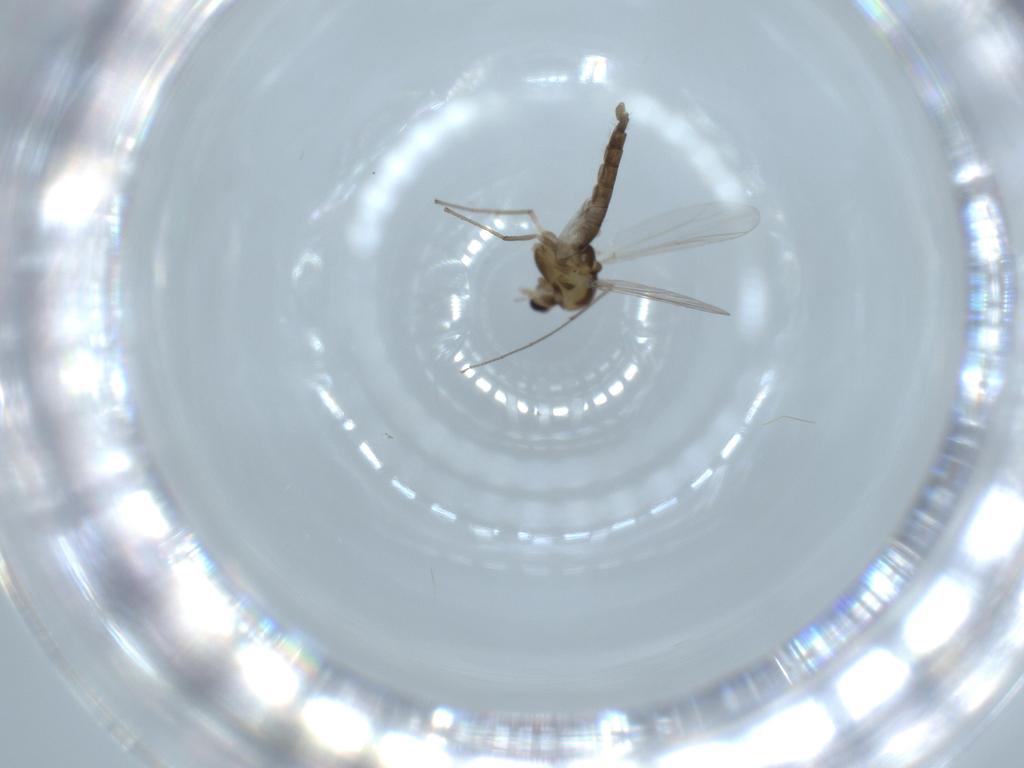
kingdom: Animalia
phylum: Arthropoda
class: Insecta
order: Diptera
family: Chironomidae
